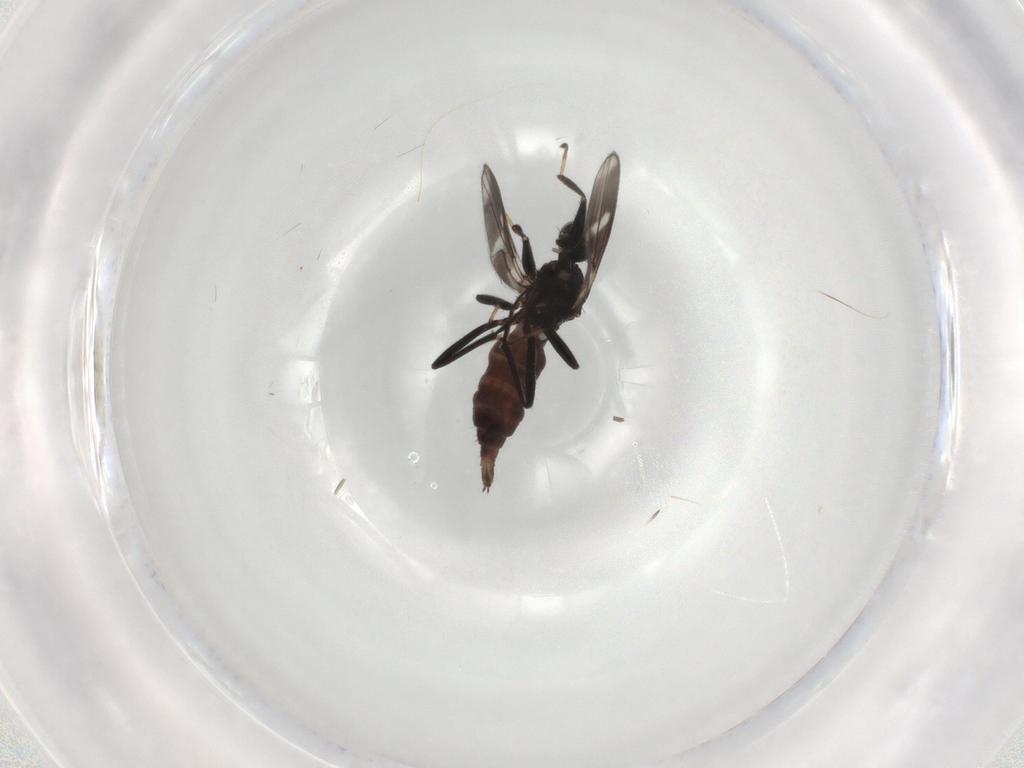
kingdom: Animalia
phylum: Arthropoda
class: Insecta
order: Diptera
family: Hybotidae
